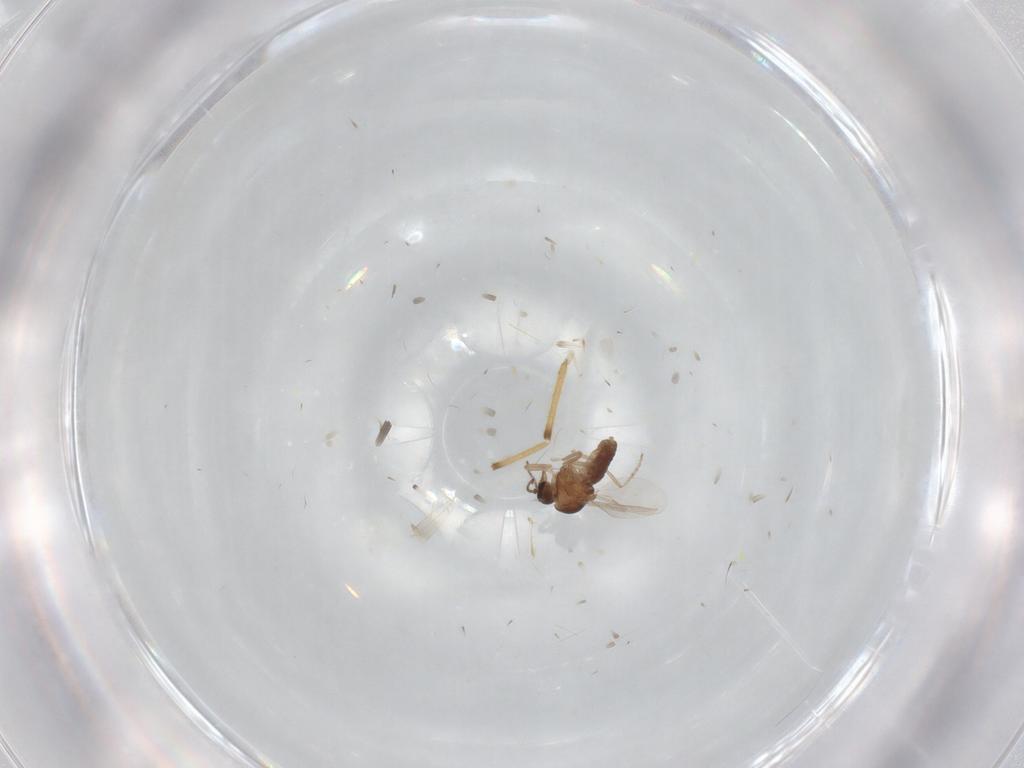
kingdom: Animalia
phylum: Arthropoda
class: Insecta
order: Diptera
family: Ceratopogonidae
